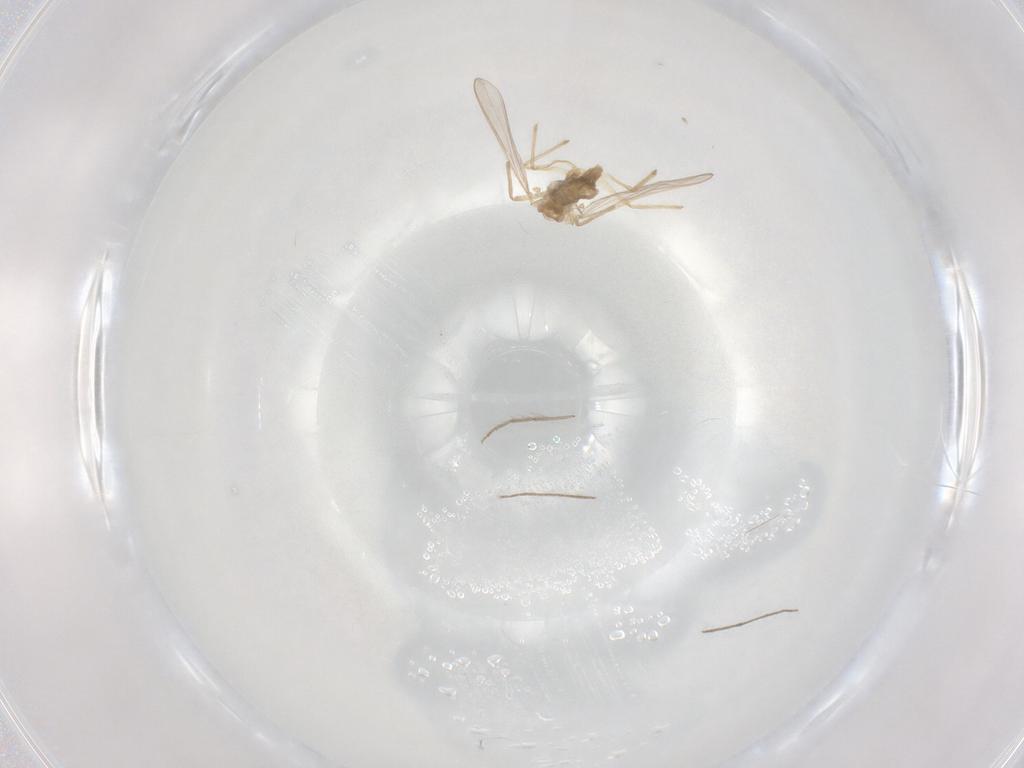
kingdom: Animalia
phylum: Arthropoda
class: Insecta
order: Diptera
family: Chironomidae
